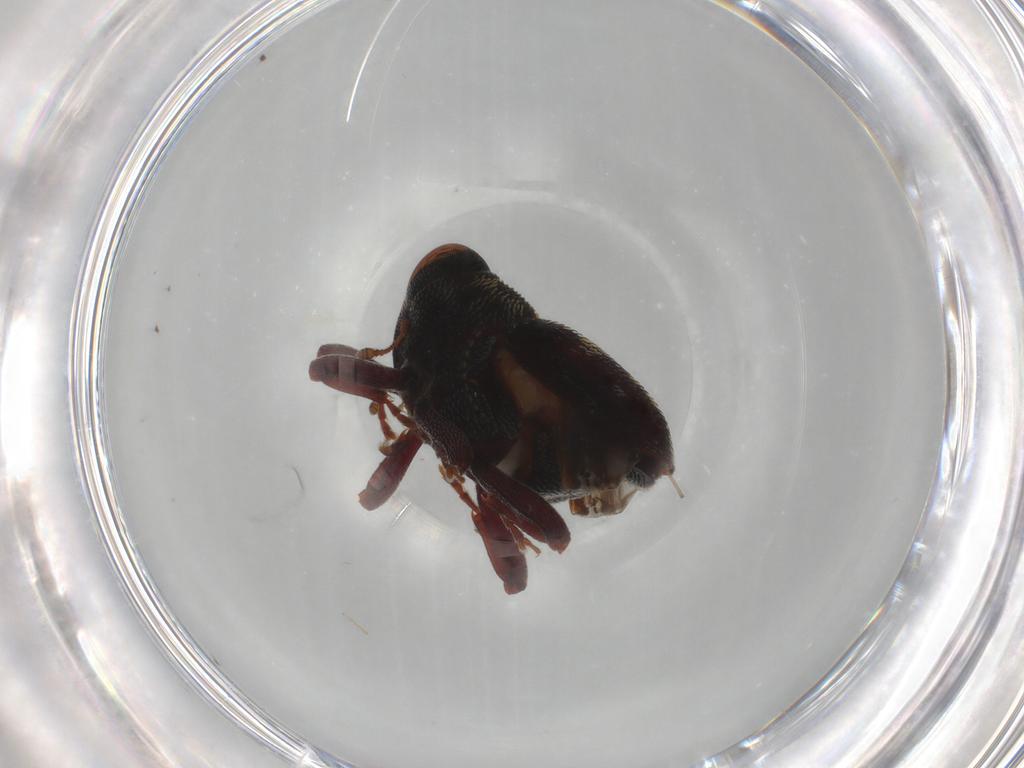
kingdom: Animalia
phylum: Arthropoda
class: Insecta
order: Coleoptera
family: Curculionidae
